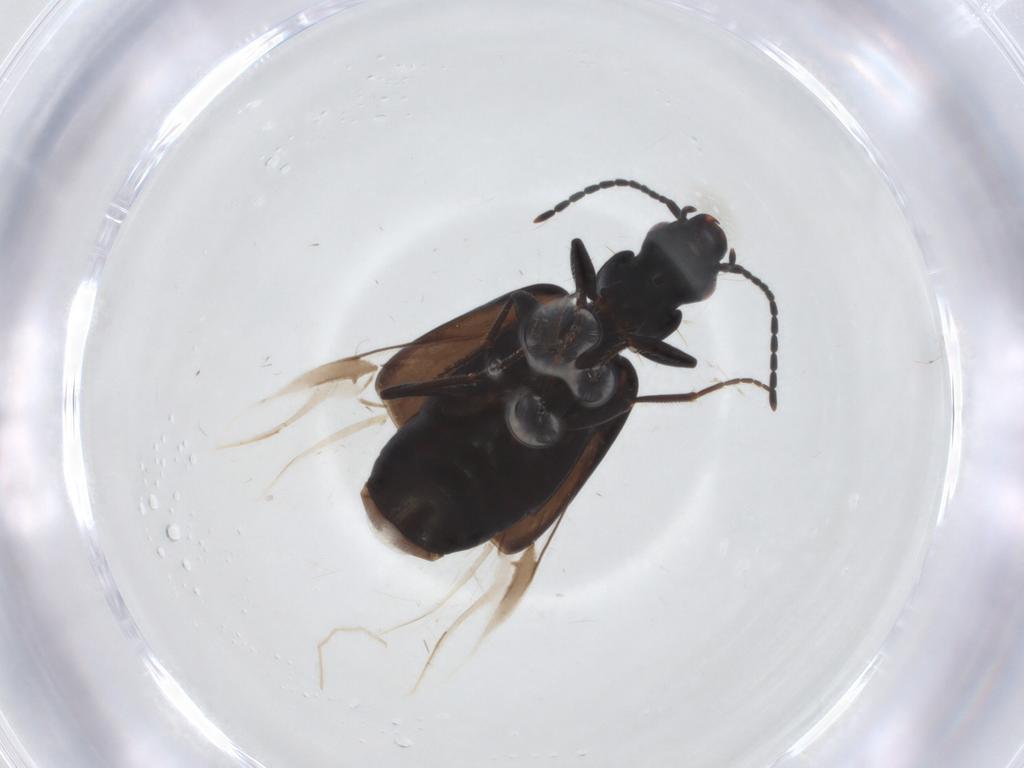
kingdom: Animalia
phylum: Arthropoda
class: Insecta
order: Coleoptera
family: Carabidae
